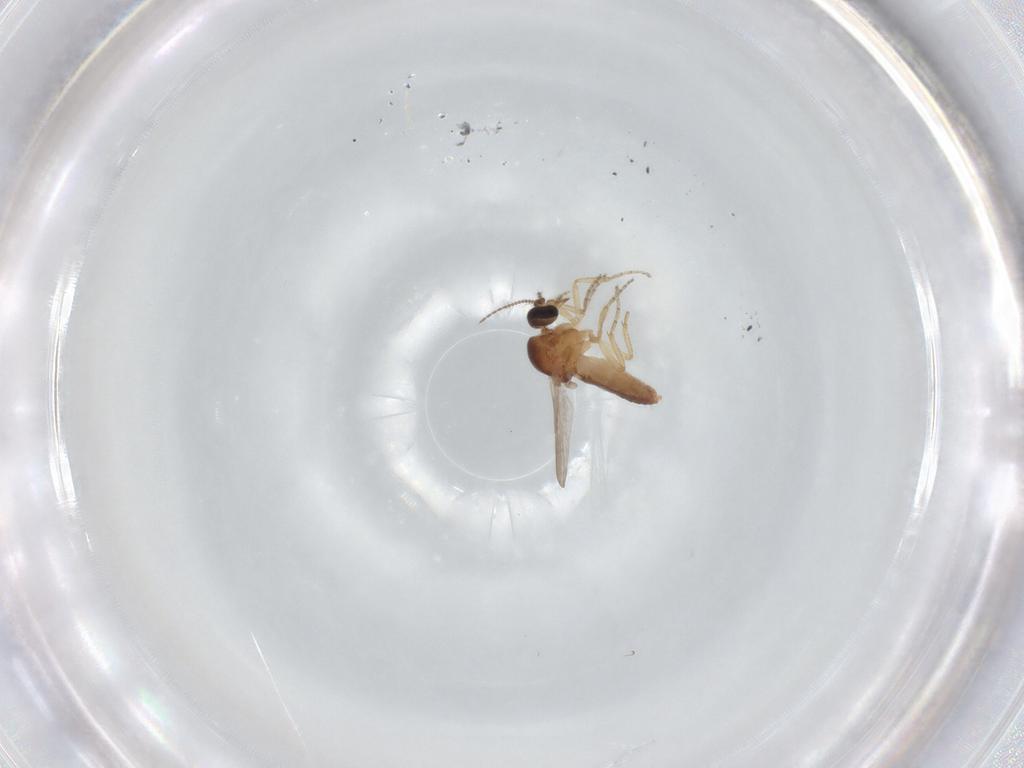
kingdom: Animalia
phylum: Arthropoda
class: Insecta
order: Diptera
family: Ceratopogonidae
